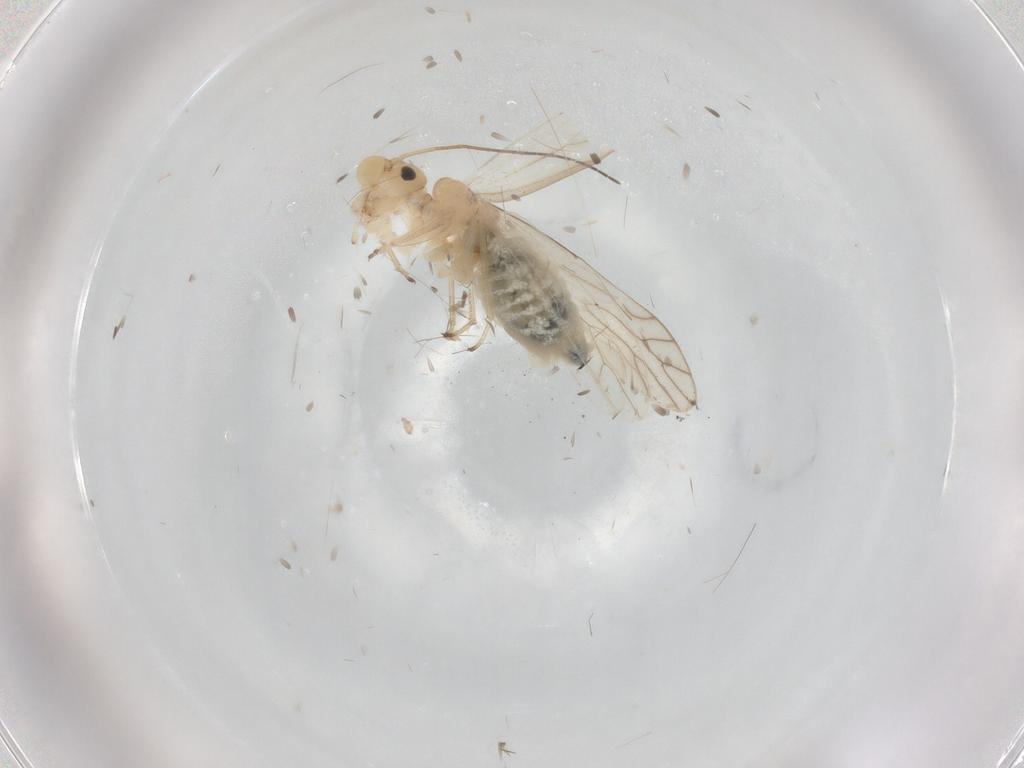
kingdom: Animalia
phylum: Arthropoda
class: Insecta
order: Psocodea
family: Caeciliusidae
